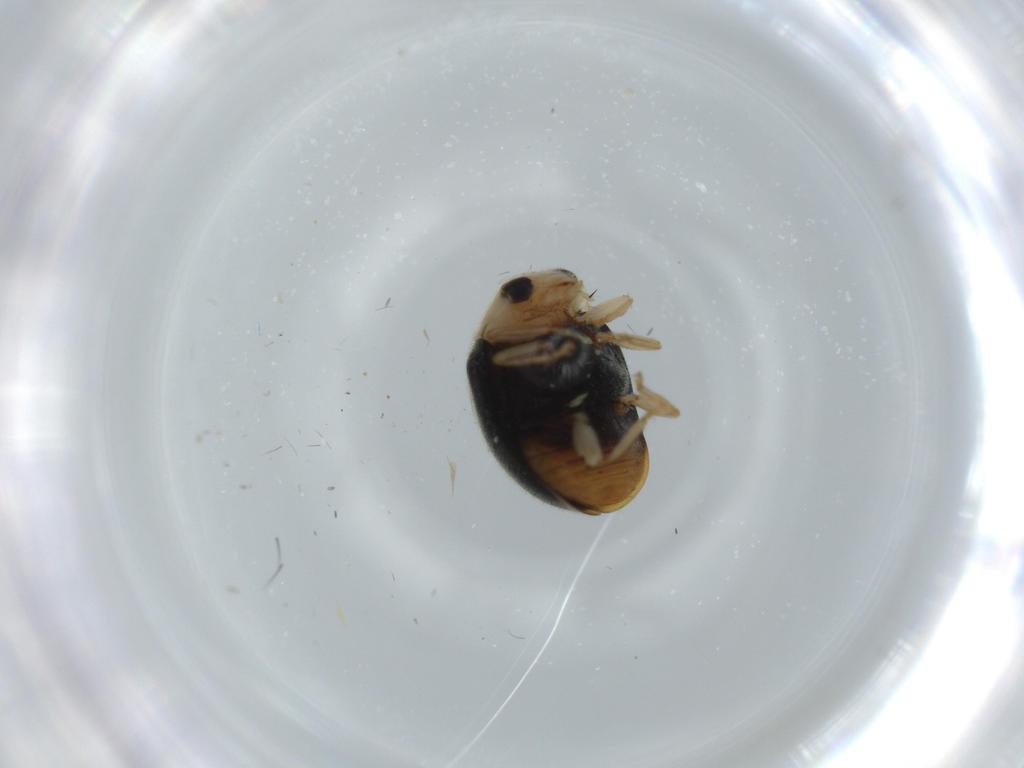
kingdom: Animalia
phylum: Arthropoda
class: Insecta
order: Coleoptera
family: Coccinellidae
